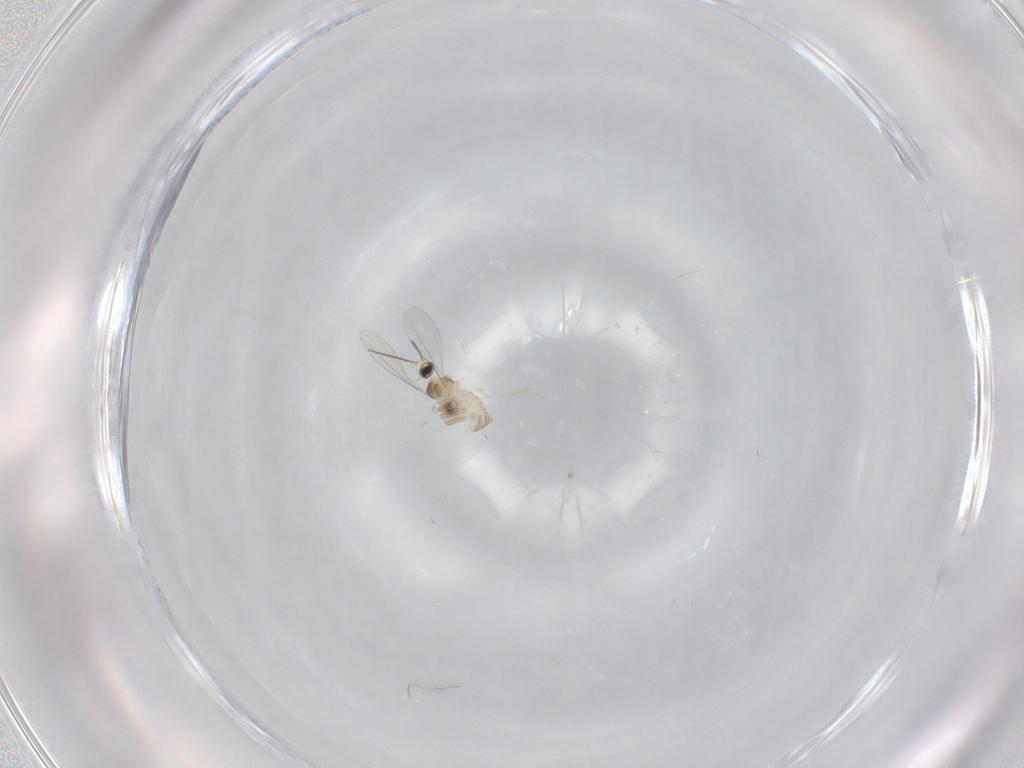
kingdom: Animalia
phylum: Arthropoda
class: Insecta
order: Diptera
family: Cecidomyiidae
